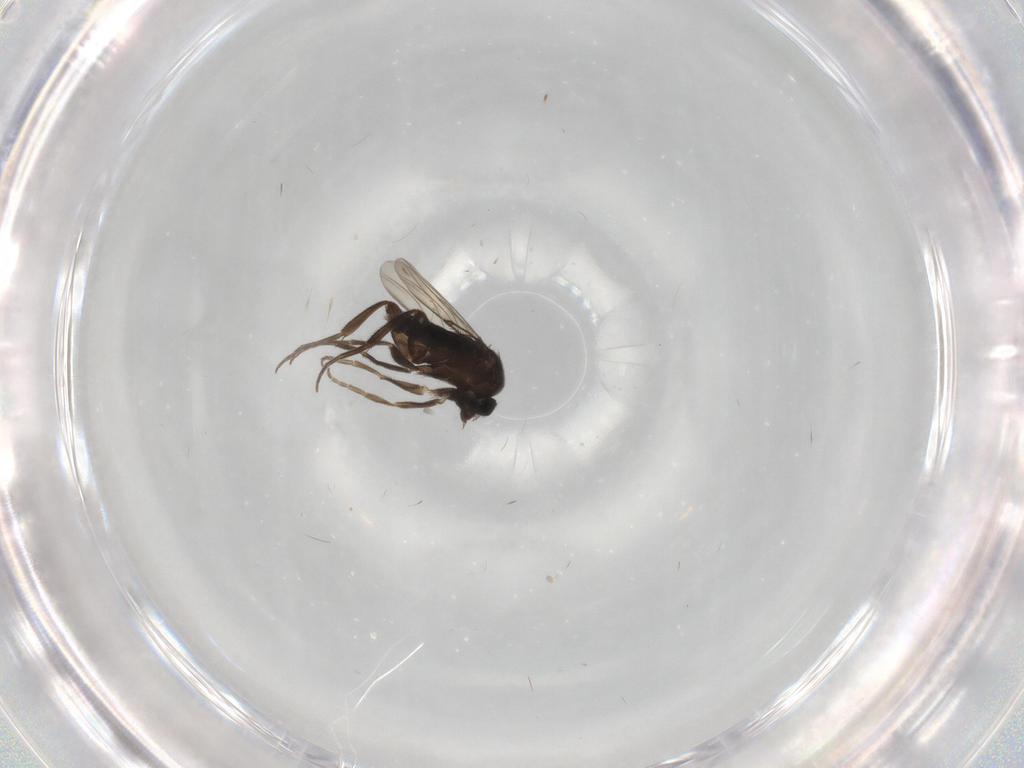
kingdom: Animalia
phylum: Arthropoda
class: Insecta
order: Diptera
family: Phoridae
